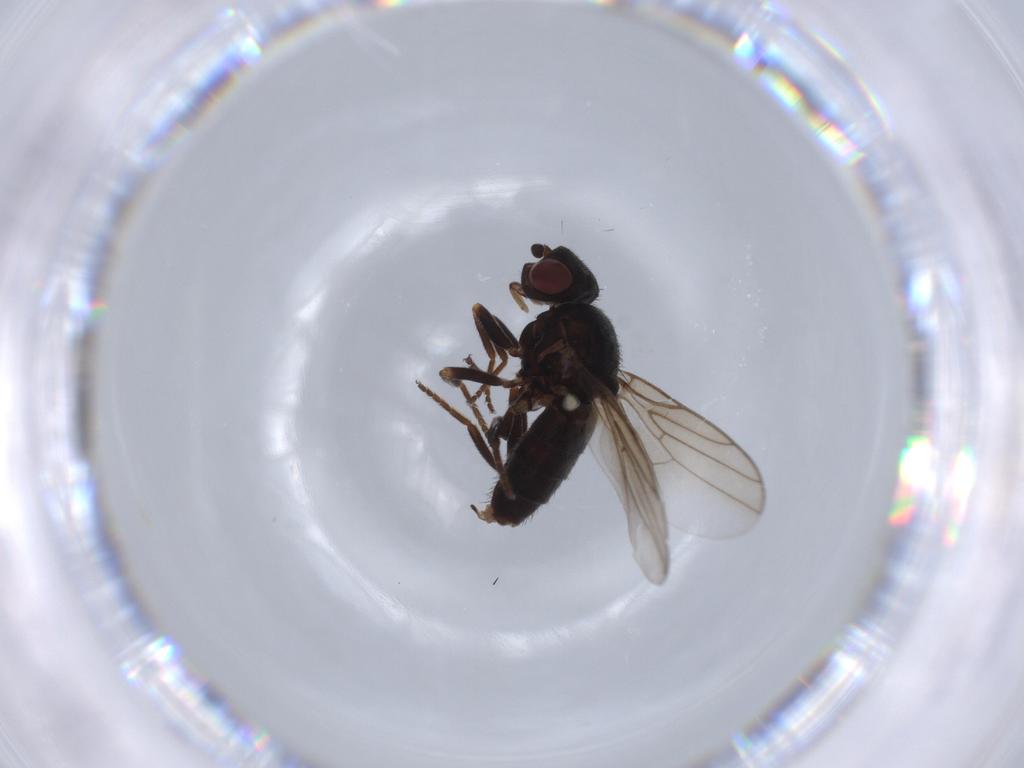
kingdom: Animalia
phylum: Arthropoda
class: Insecta
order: Diptera
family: Chloropidae
